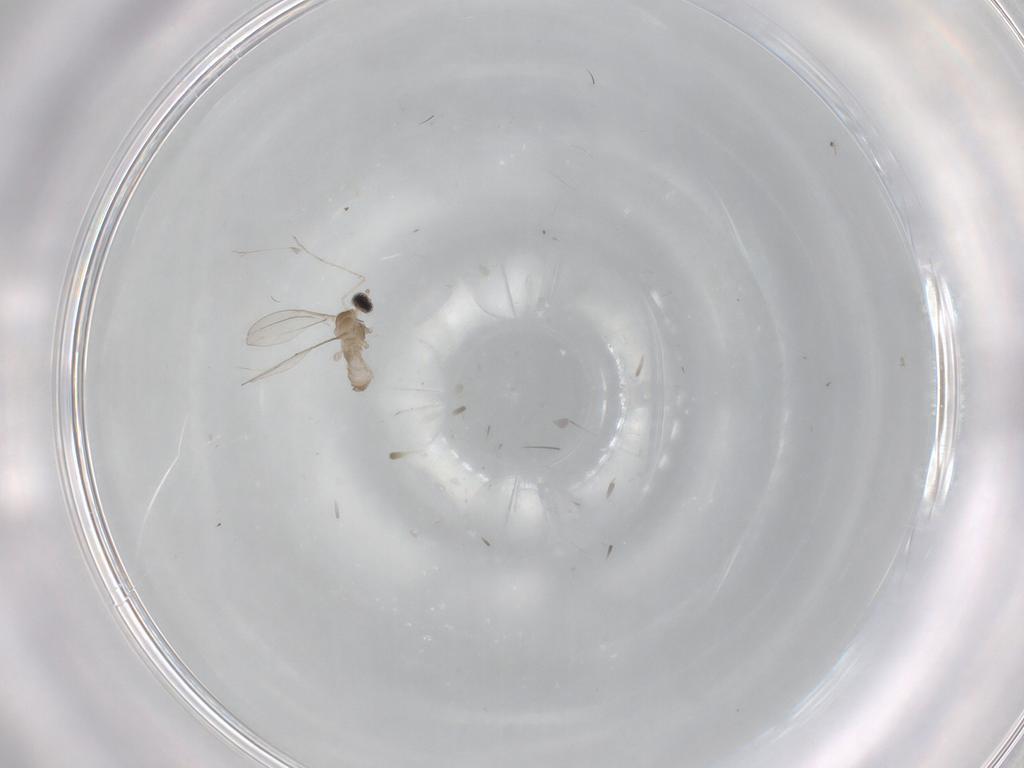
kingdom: Animalia
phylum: Arthropoda
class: Insecta
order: Diptera
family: Cecidomyiidae
